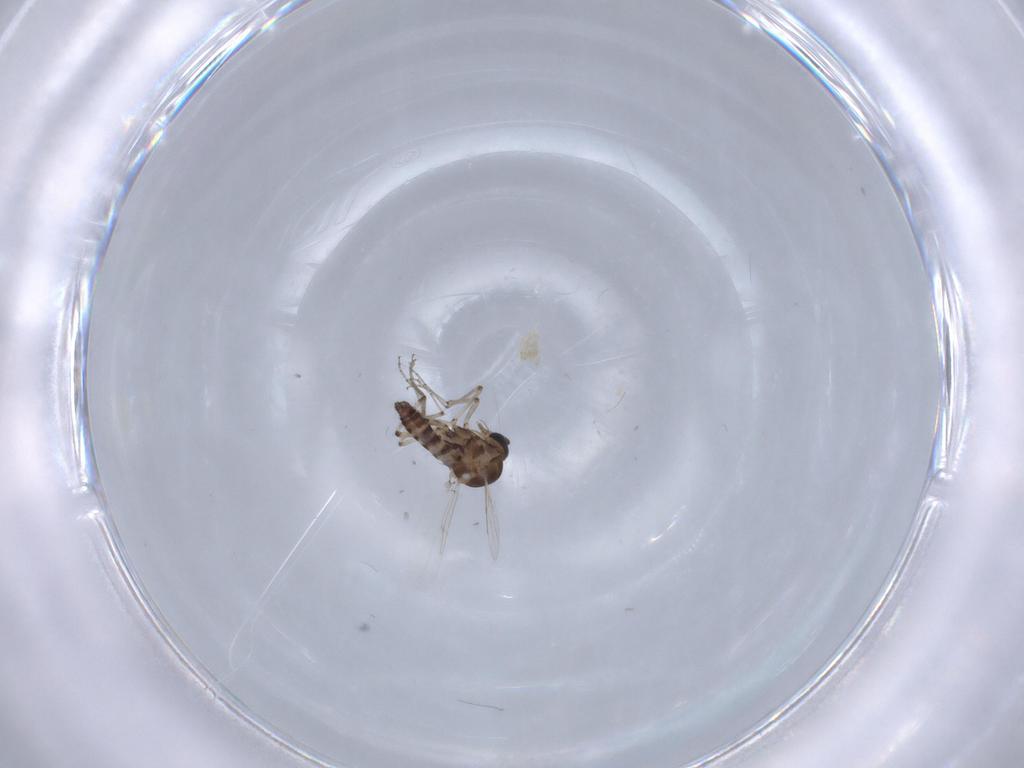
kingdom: Animalia
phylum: Arthropoda
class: Insecta
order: Diptera
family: Ceratopogonidae
